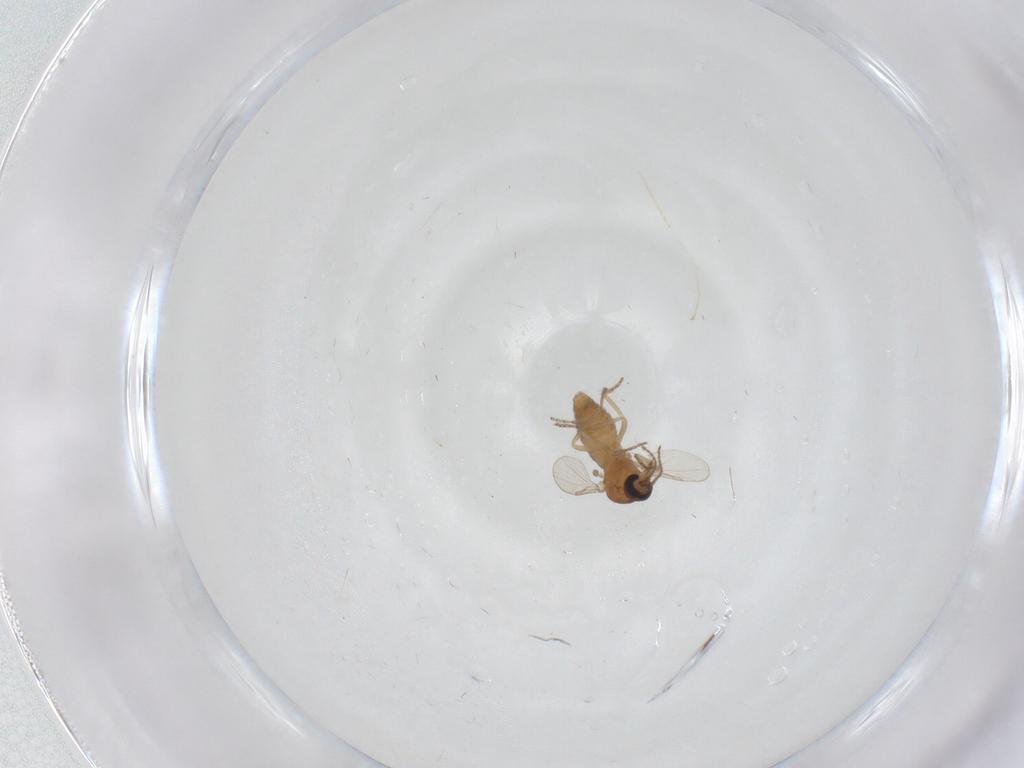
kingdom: Animalia
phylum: Arthropoda
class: Insecta
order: Diptera
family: Ceratopogonidae
